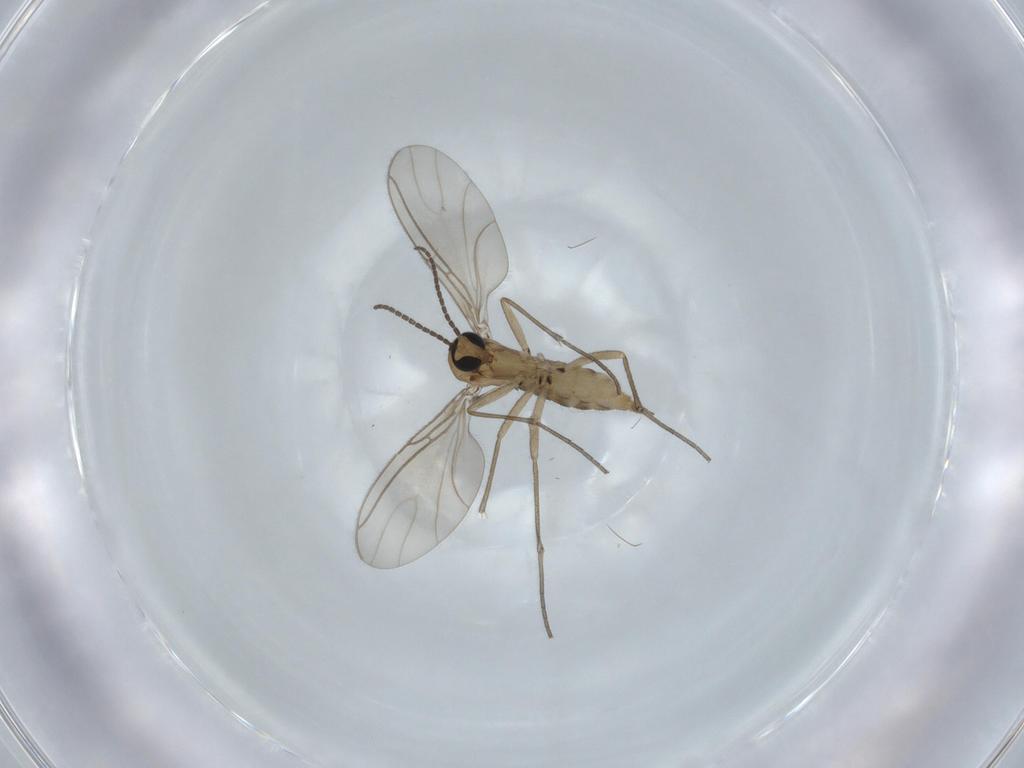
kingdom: Animalia
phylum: Arthropoda
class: Insecta
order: Diptera
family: Sciaridae
